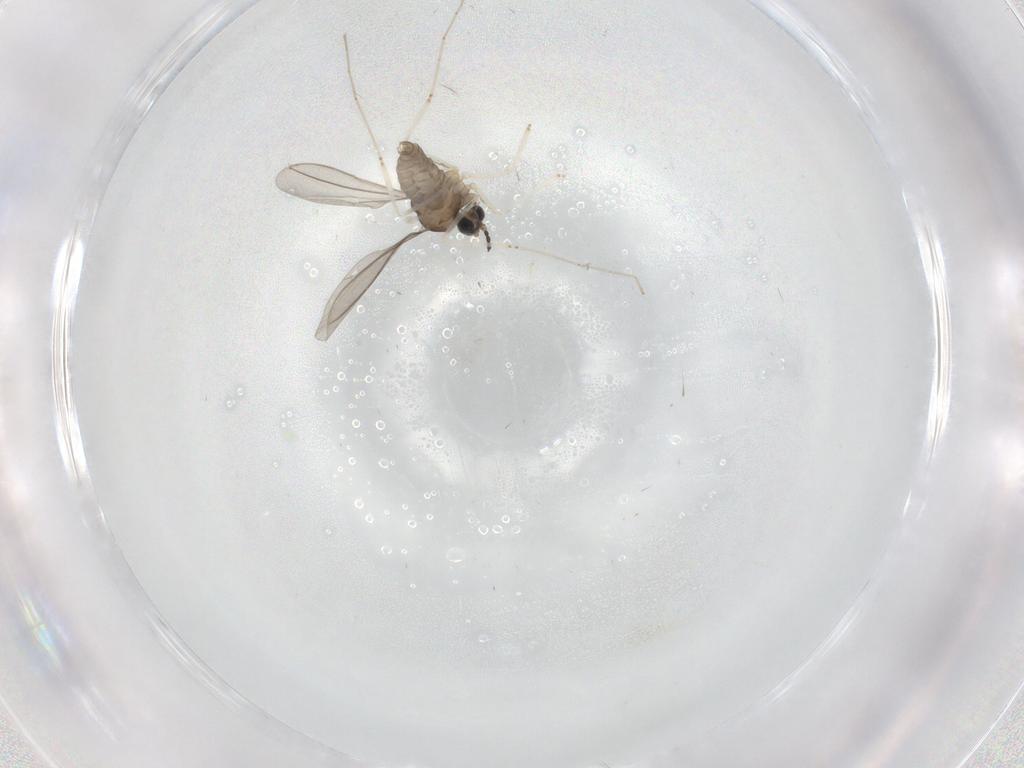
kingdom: Animalia
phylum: Arthropoda
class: Insecta
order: Diptera
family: Cecidomyiidae
